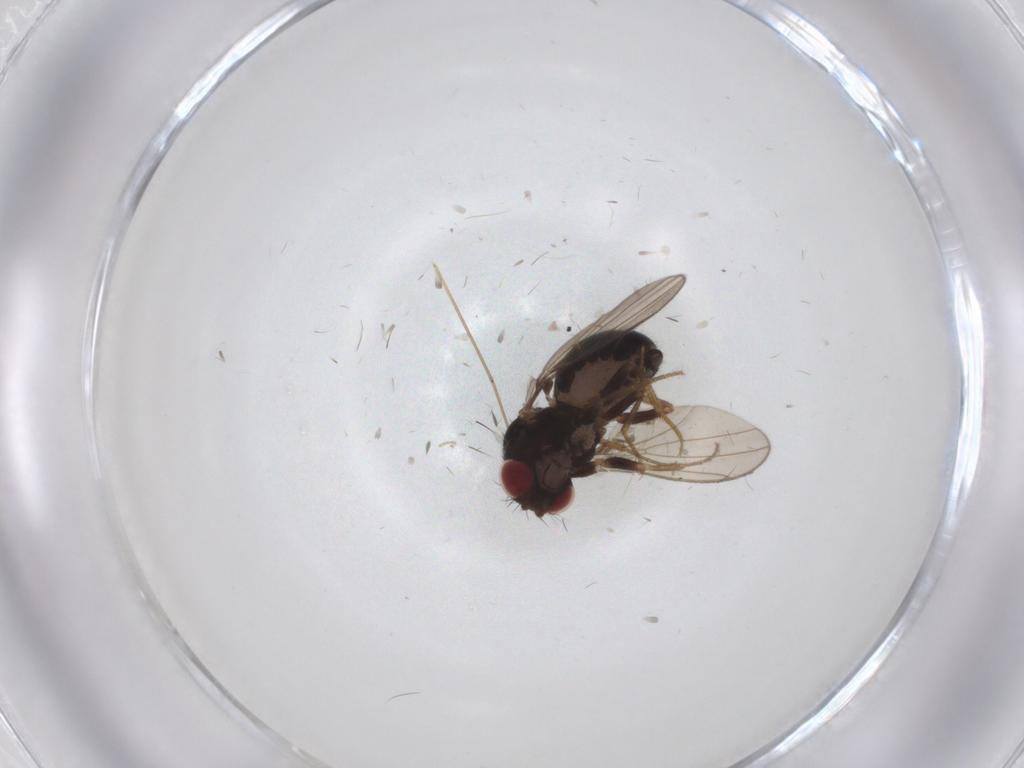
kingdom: Animalia
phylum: Arthropoda
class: Insecta
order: Diptera
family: Drosophilidae
